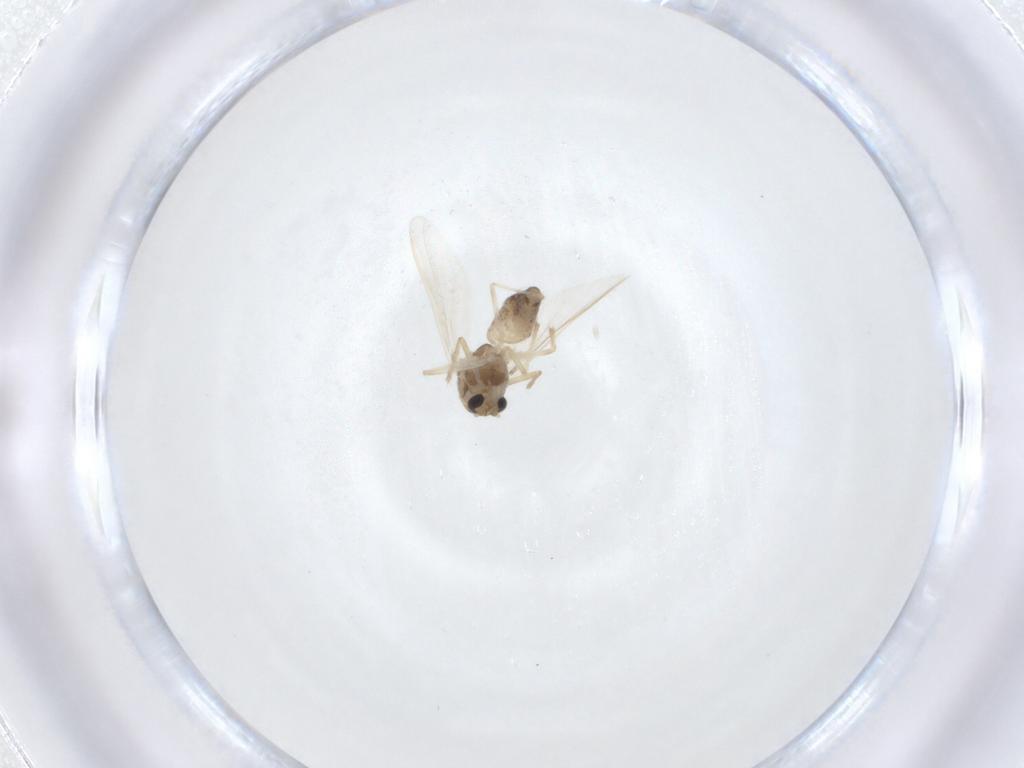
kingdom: Animalia
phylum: Arthropoda
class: Insecta
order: Diptera
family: Chironomidae
